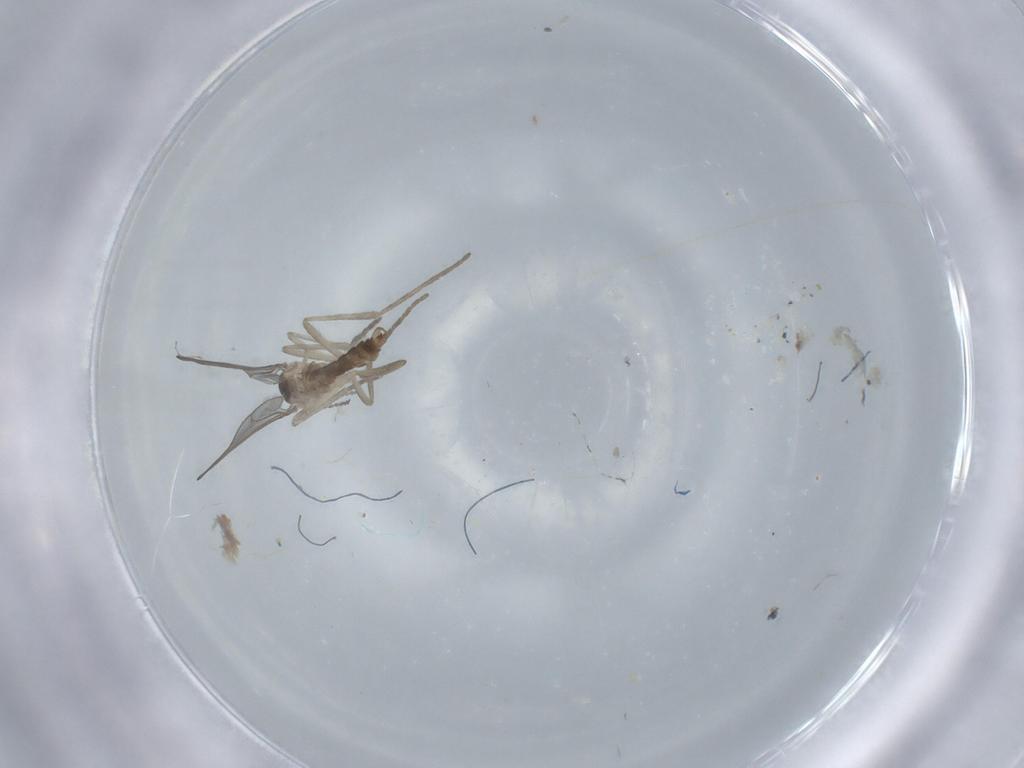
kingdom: Animalia
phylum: Arthropoda
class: Insecta
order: Diptera
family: Cecidomyiidae
